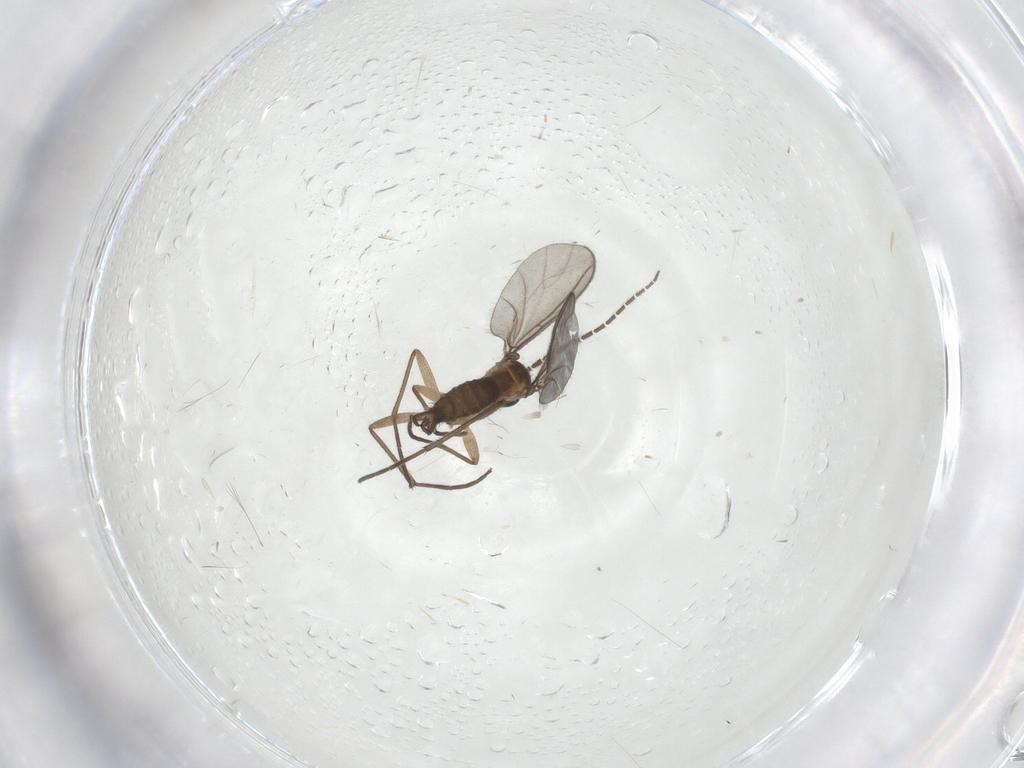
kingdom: Animalia
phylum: Arthropoda
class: Insecta
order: Diptera
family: Sciaridae
